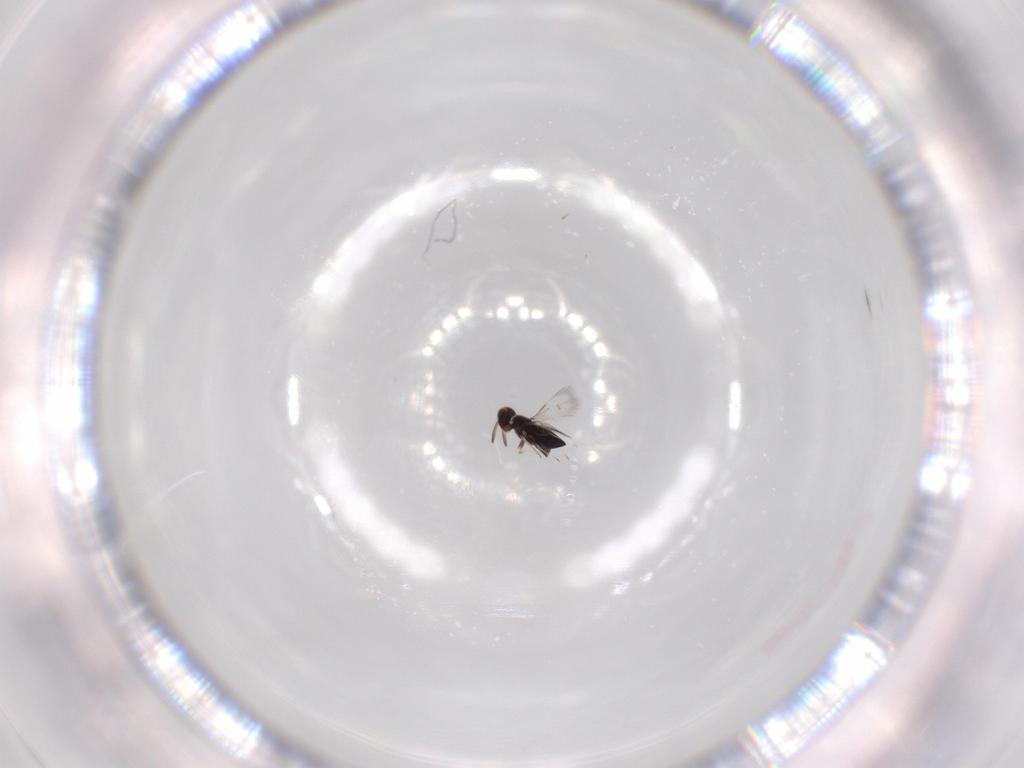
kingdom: Animalia
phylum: Arthropoda
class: Insecta
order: Hymenoptera
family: Signiphoridae
